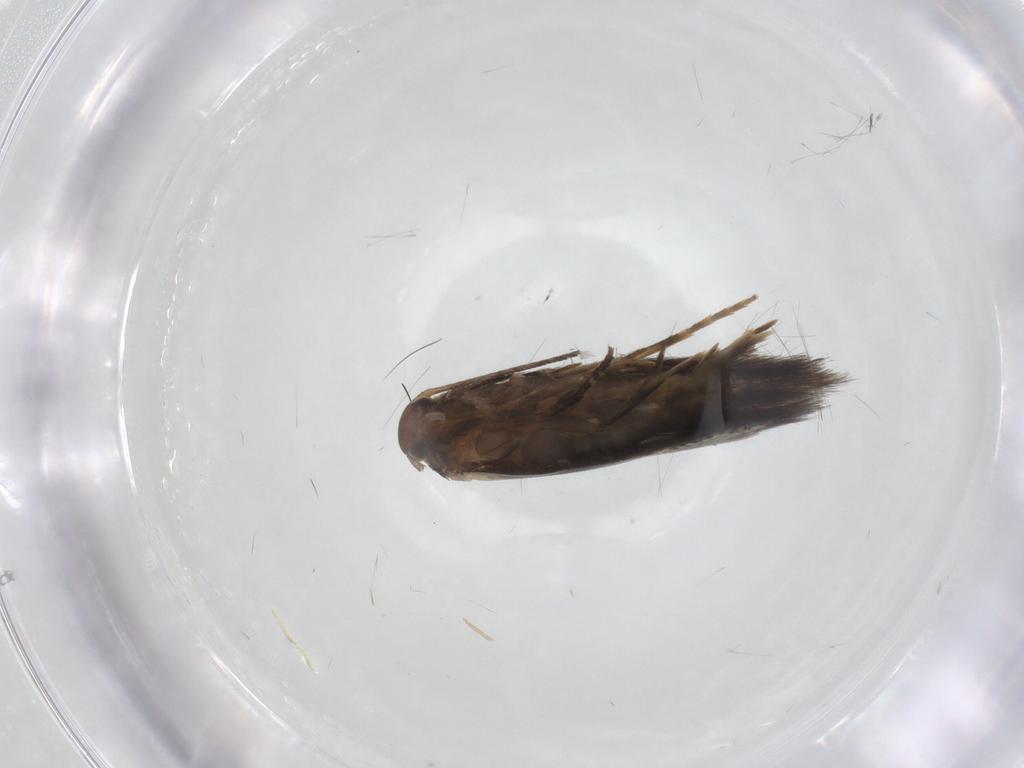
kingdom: Animalia
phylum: Arthropoda
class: Insecta
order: Lepidoptera
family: Elachistidae
